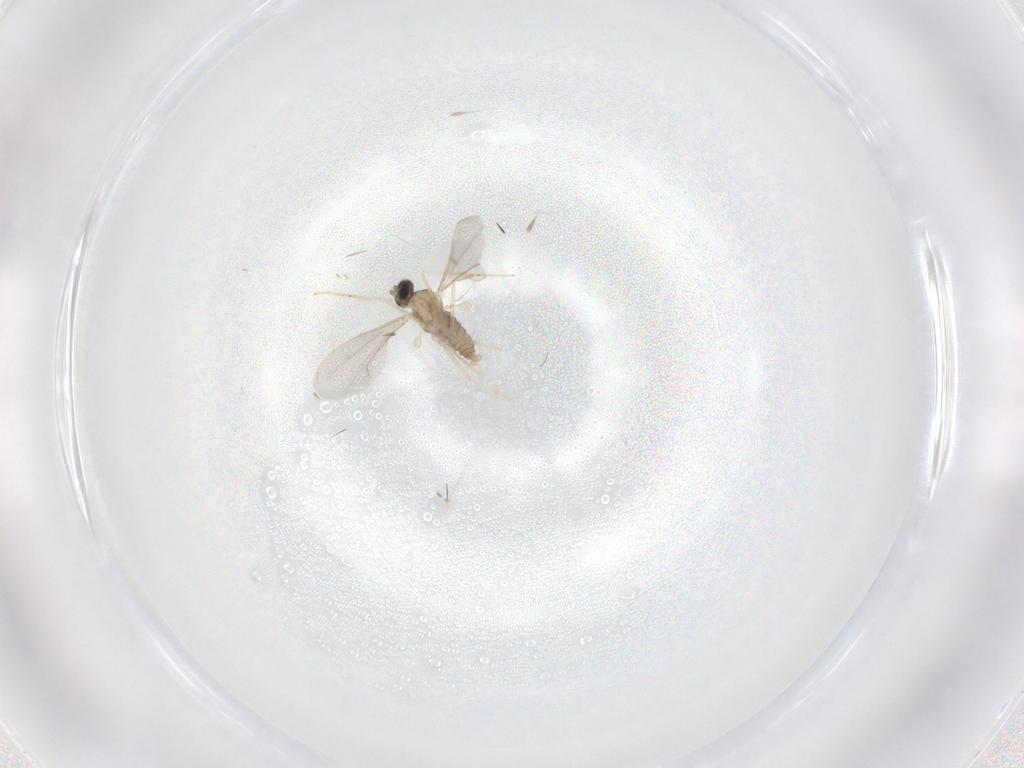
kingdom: Animalia
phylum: Arthropoda
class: Insecta
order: Diptera
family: Cecidomyiidae
